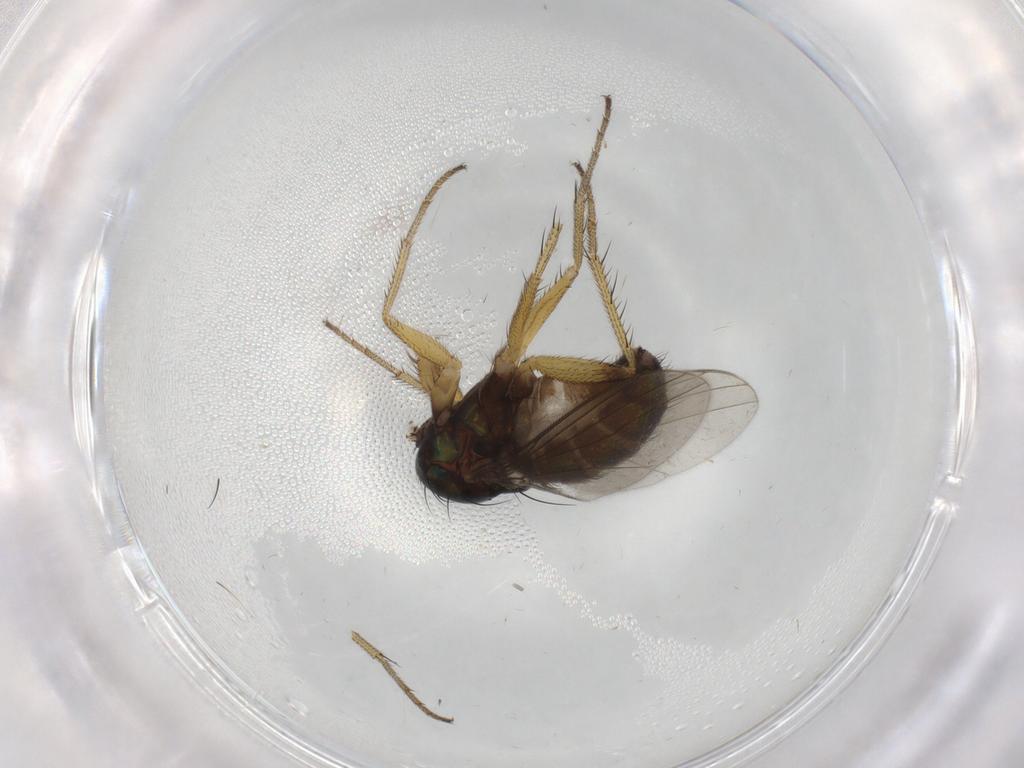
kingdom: Animalia
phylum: Arthropoda
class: Insecta
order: Diptera
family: Dolichopodidae
